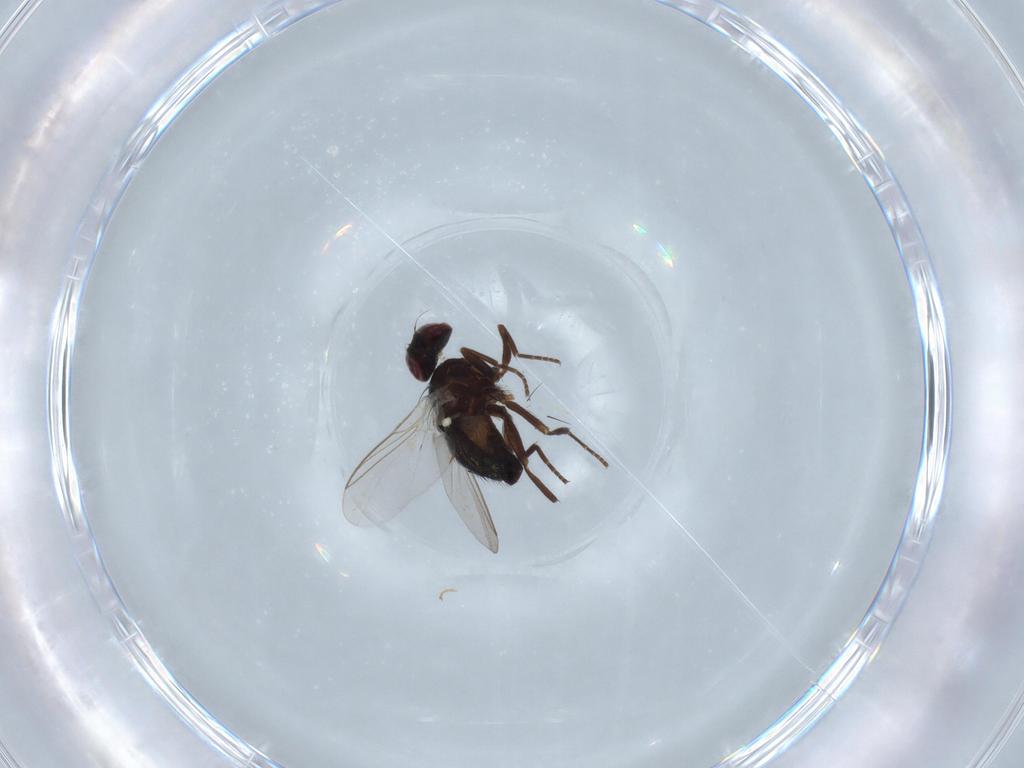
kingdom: Animalia
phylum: Arthropoda
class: Insecta
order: Diptera
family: Scatopsidae
